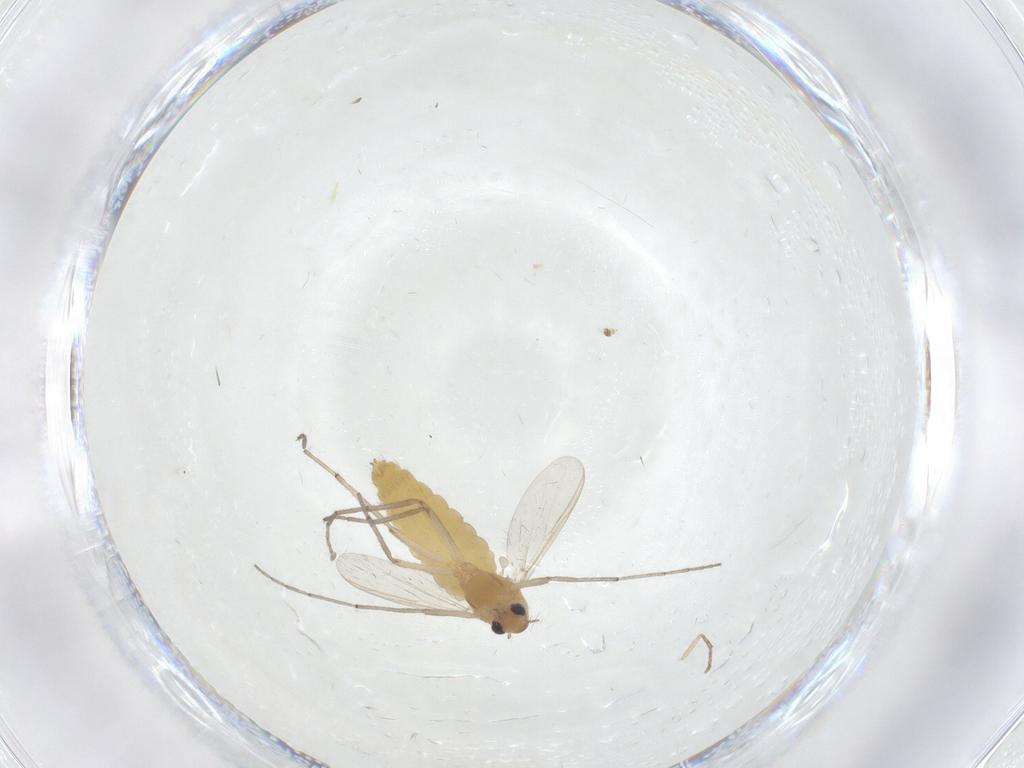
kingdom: Animalia
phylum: Arthropoda
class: Insecta
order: Diptera
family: Chironomidae
